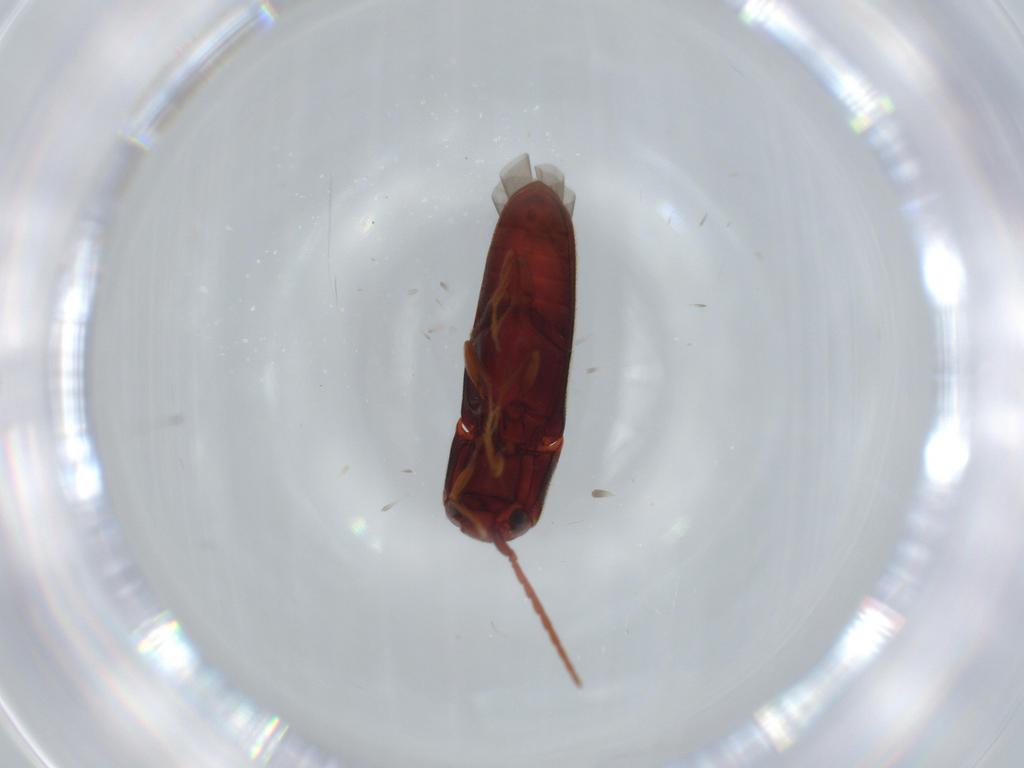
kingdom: Animalia
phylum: Arthropoda
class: Insecta
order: Coleoptera
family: Eucnemidae
